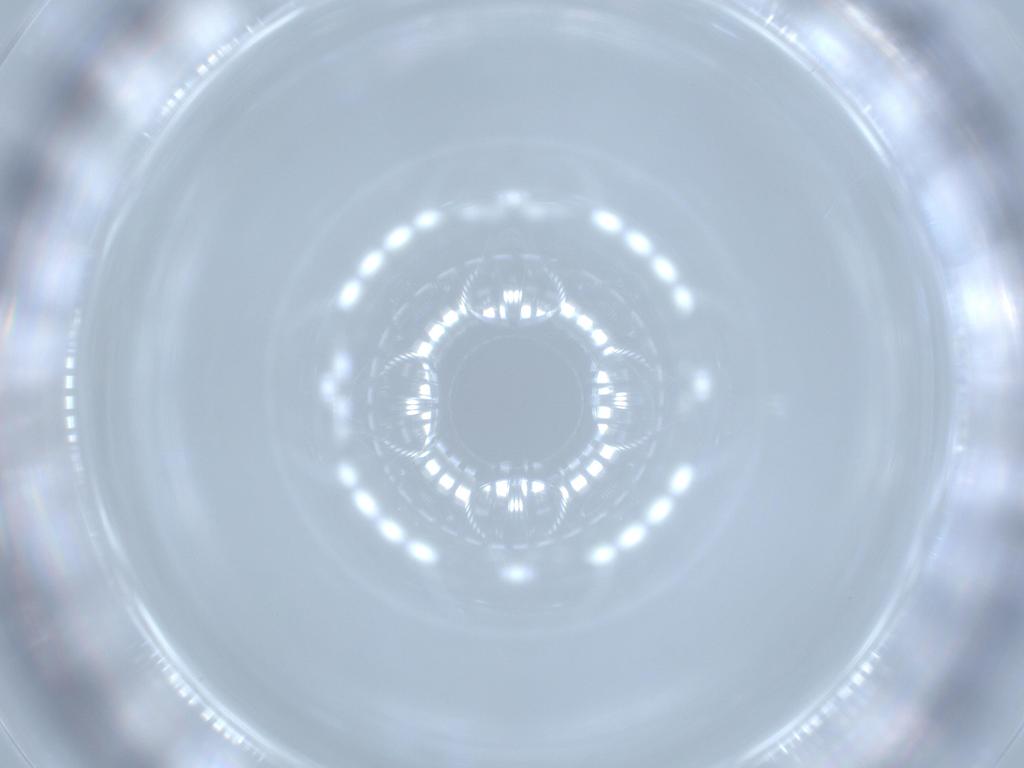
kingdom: Animalia
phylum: Arthropoda
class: Insecta
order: Diptera
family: Cecidomyiidae
